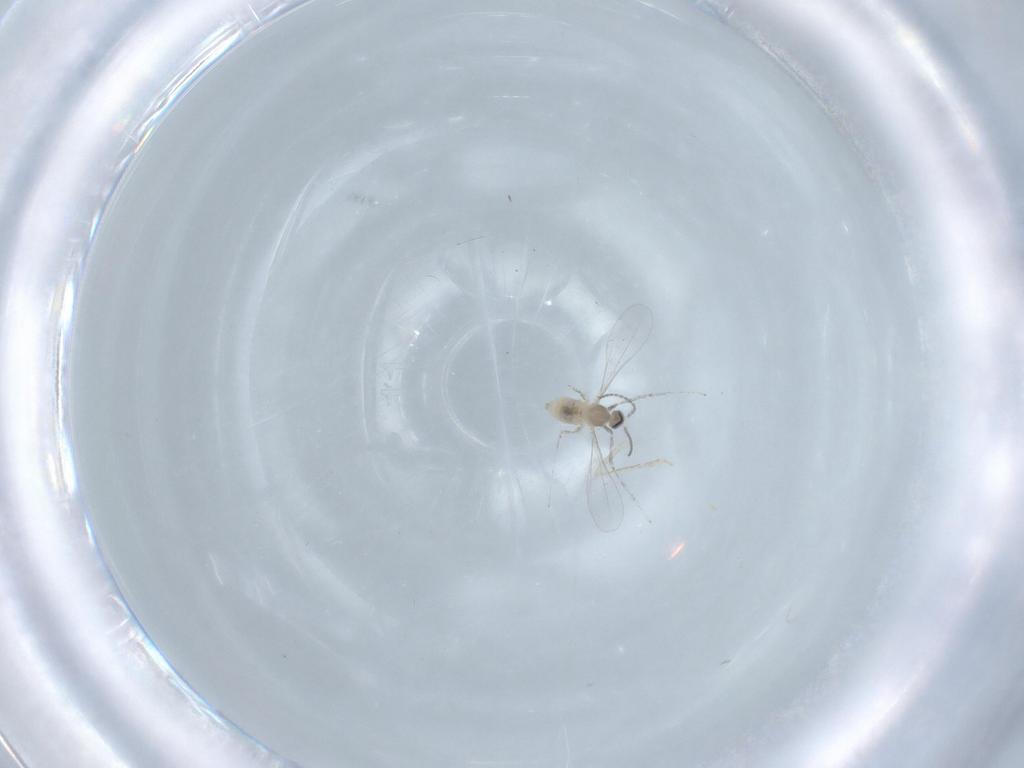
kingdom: Animalia
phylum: Arthropoda
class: Insecta
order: Diptera
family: Cecidomyiidae
